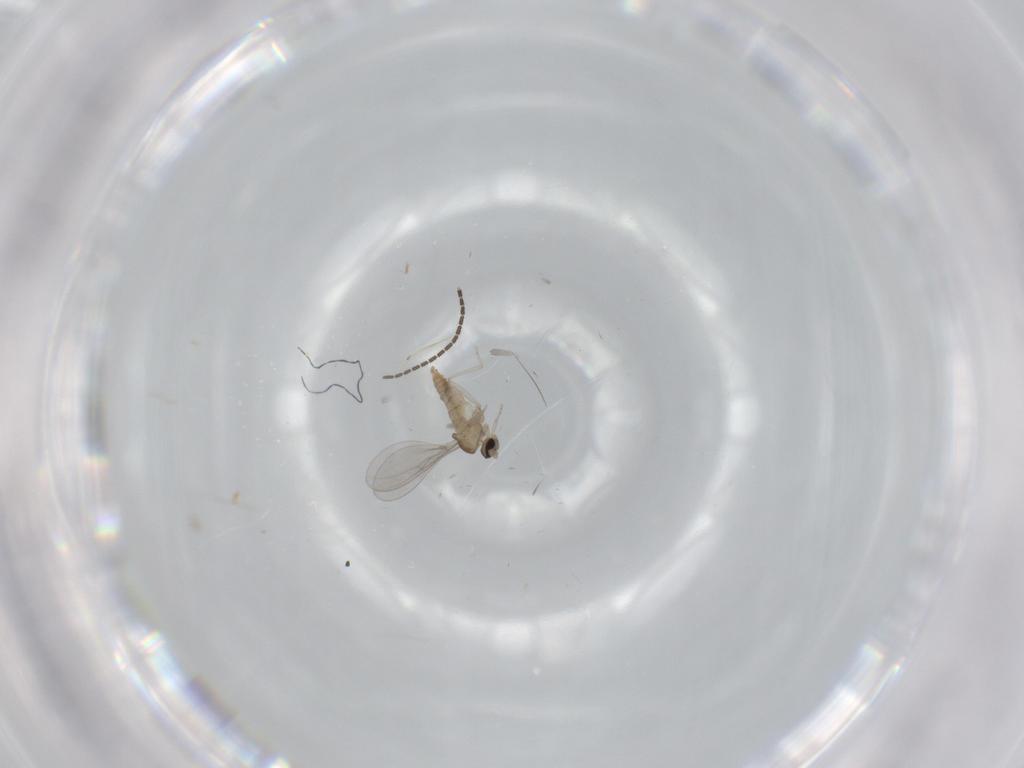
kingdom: Animalia
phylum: Arthropoda
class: Insecta
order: Diptera
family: Cecidomyiidae
